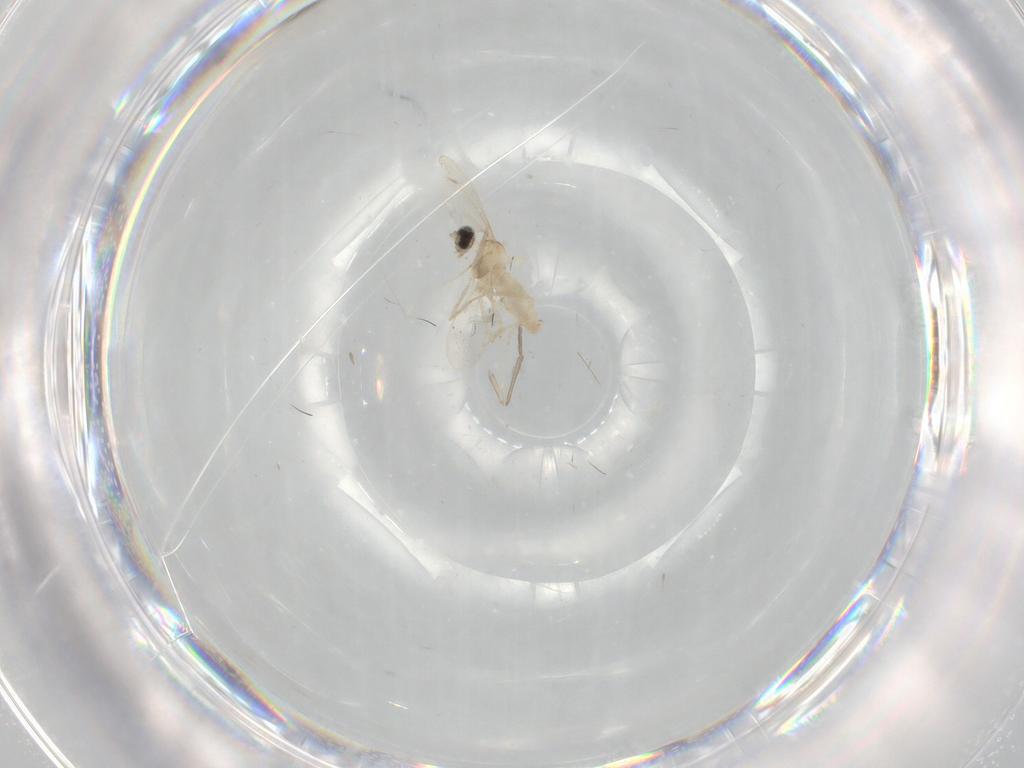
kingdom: Animalia
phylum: Arthropoda
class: Insecta
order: Diptera
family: Cecidomyiidae
